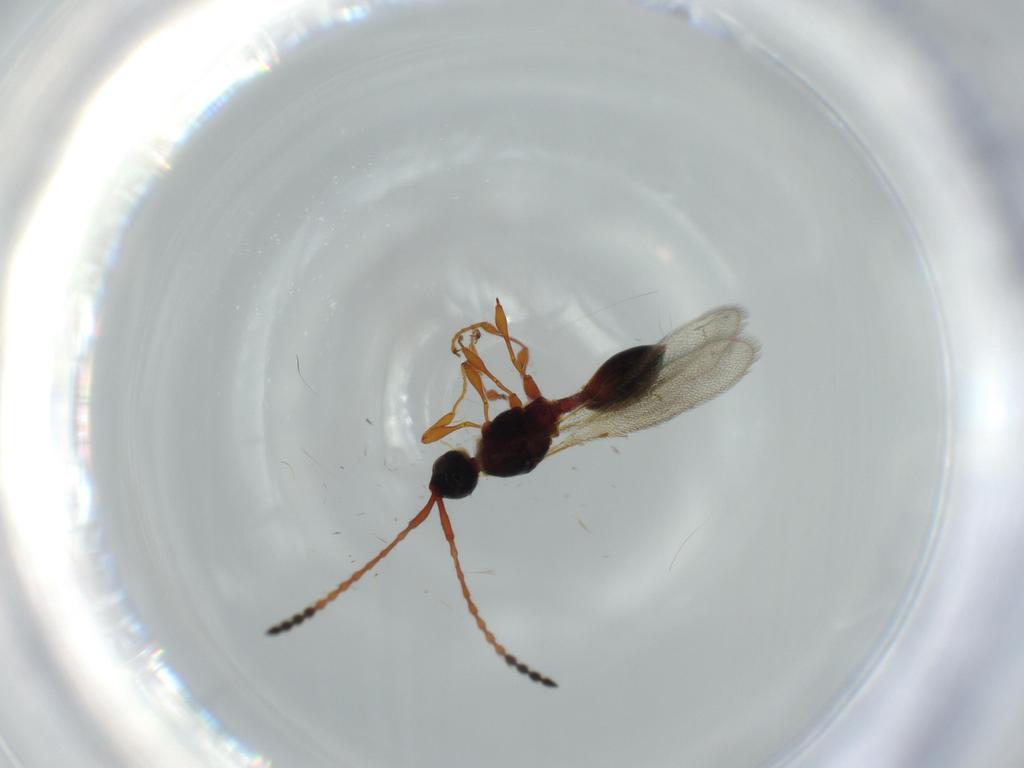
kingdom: Animalia
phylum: Arthropoda
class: Insecta
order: Hymenoptera
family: Diapriidae
